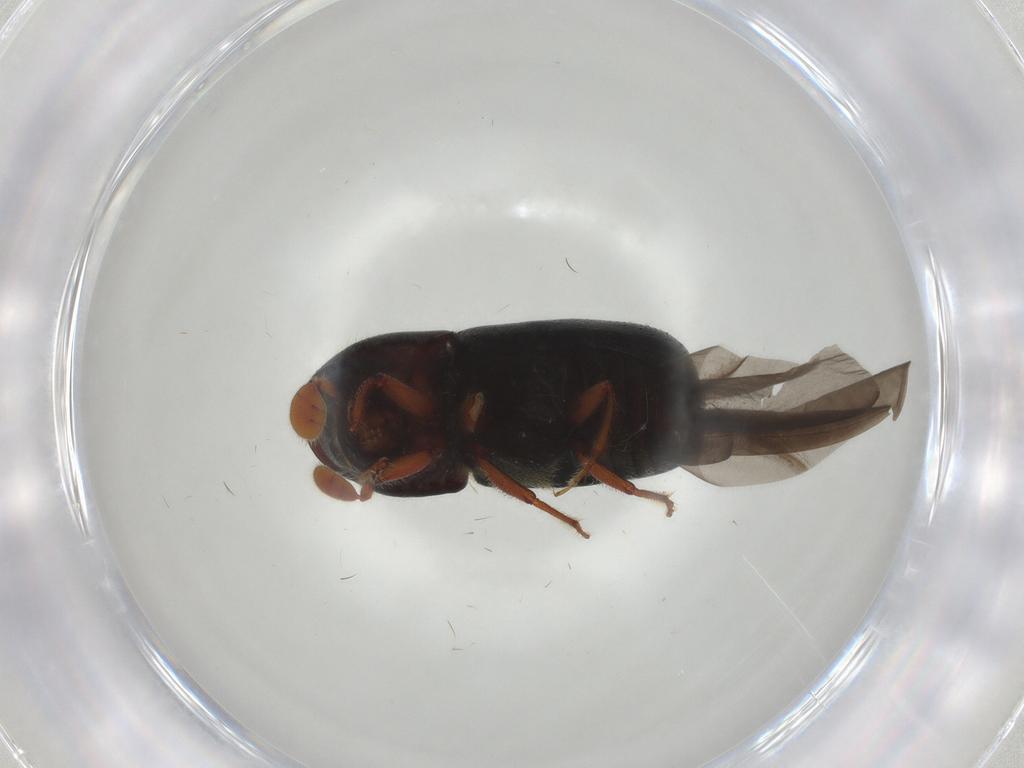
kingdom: Animalia
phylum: Arthropoda
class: Insecta
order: Coleoptera
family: Curculionidae
